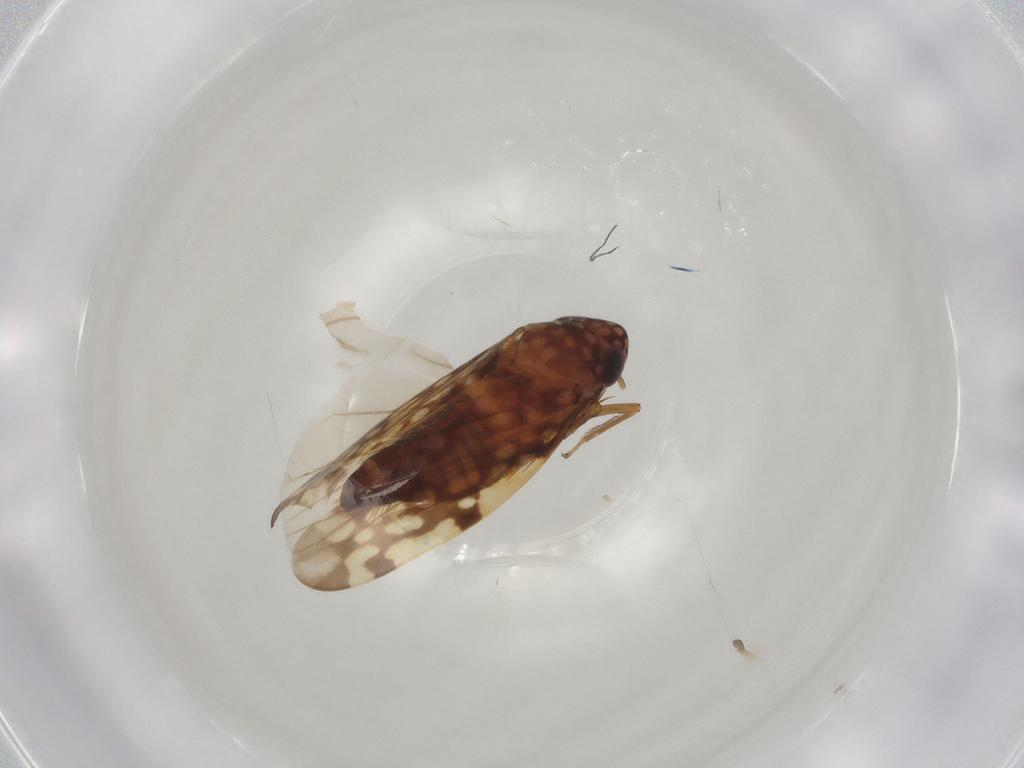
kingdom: Animalia
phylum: Arthropoda
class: Insecta
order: Hemiptera
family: Cicadellidae
